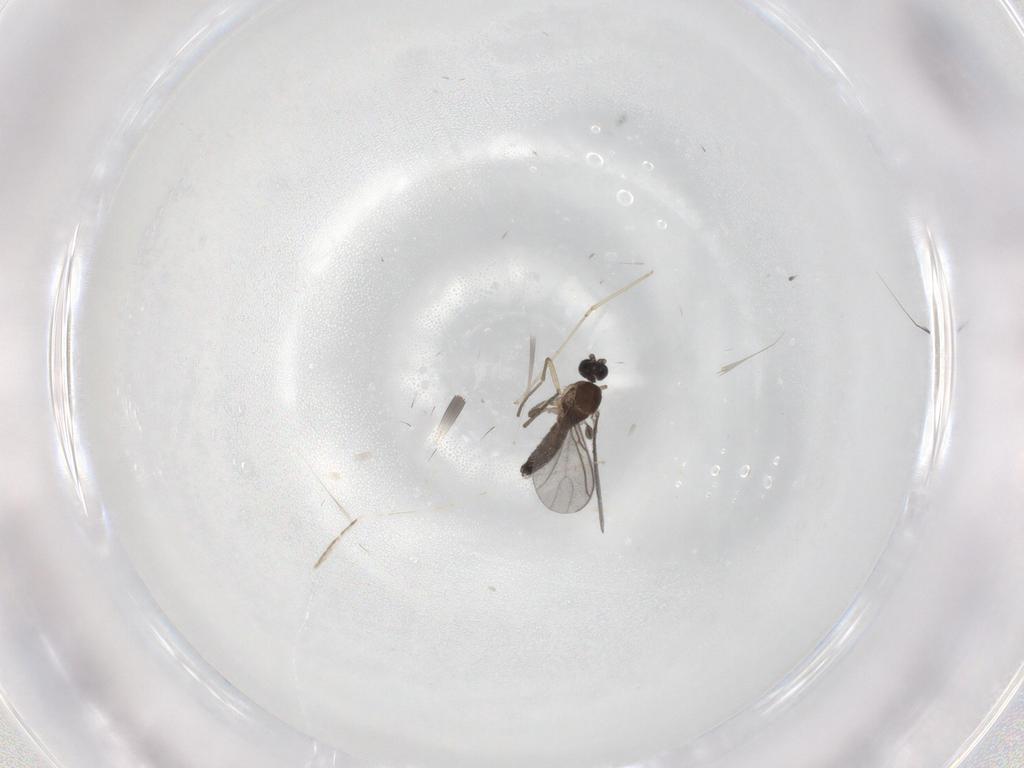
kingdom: Animalia
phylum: Arthropoda
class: Insecta
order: Diptera
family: Sciaridae
